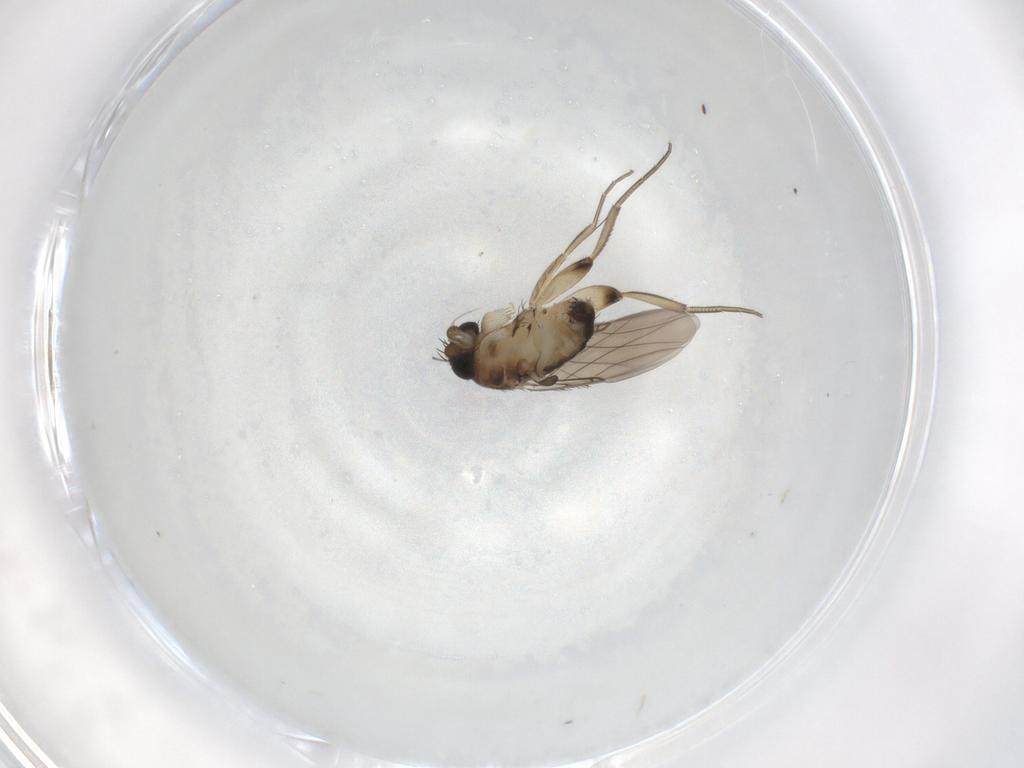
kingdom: Animalia
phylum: Arthropoda
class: Insecta
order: Diptera
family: Phoridae
